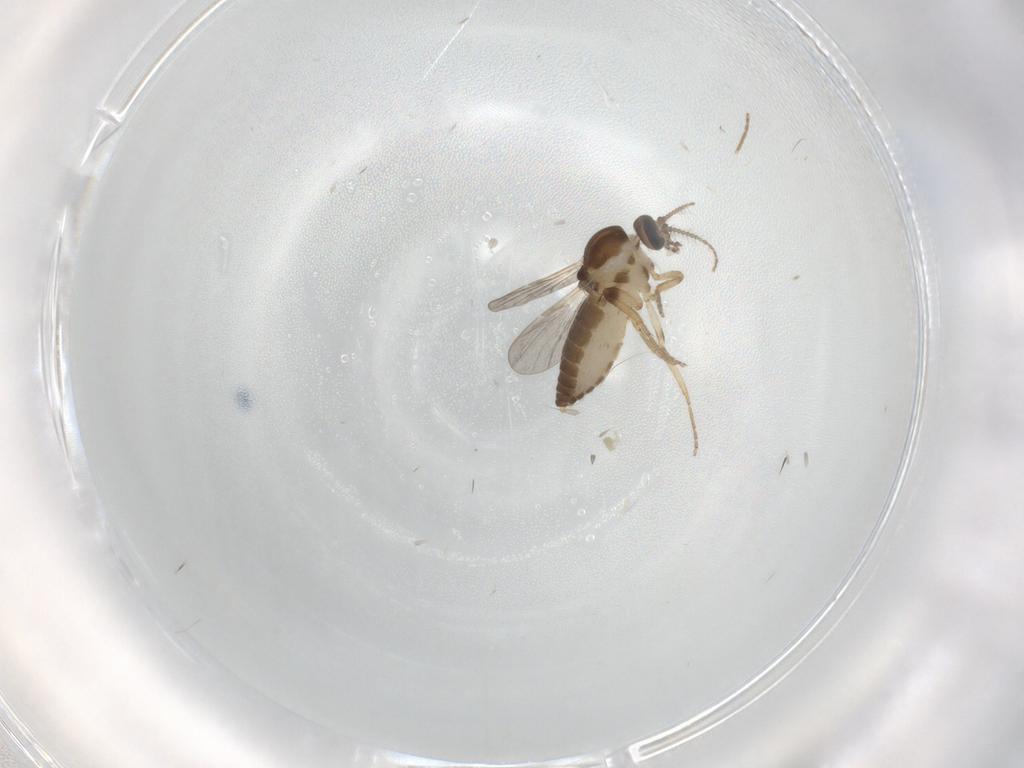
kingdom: Animalia
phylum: Arthropoda
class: Insecta
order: Diptera
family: Ceratopogonidae
